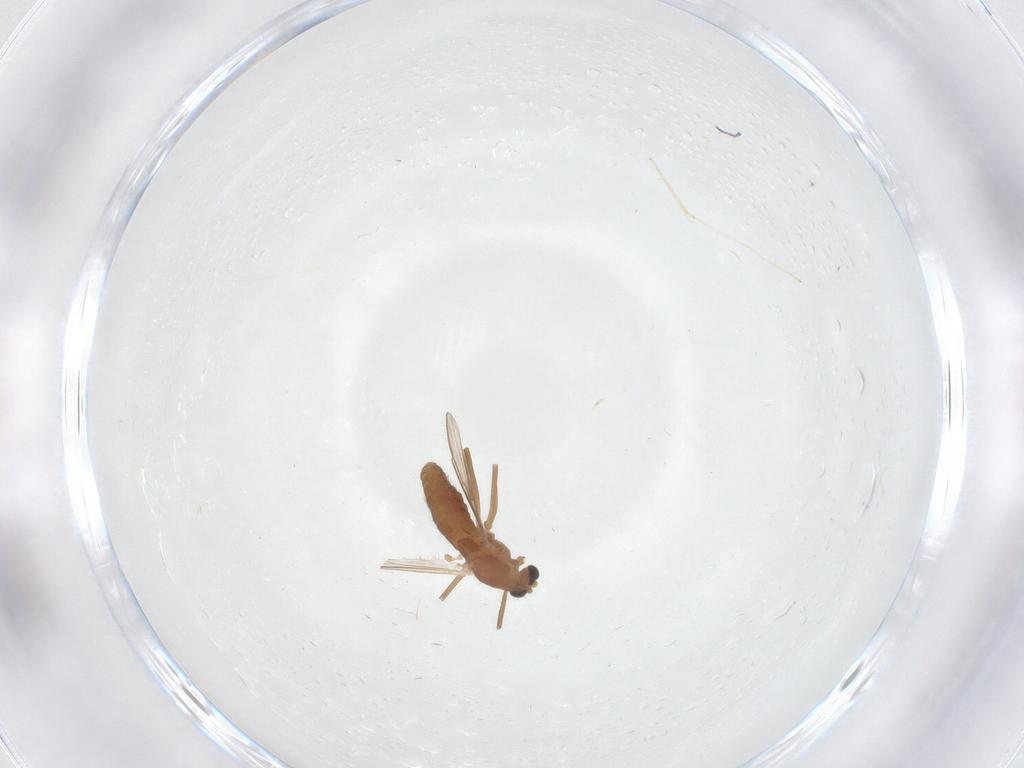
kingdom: Animalia
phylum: Arthropoda
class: Insecta
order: Diptera
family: Chironomidae
